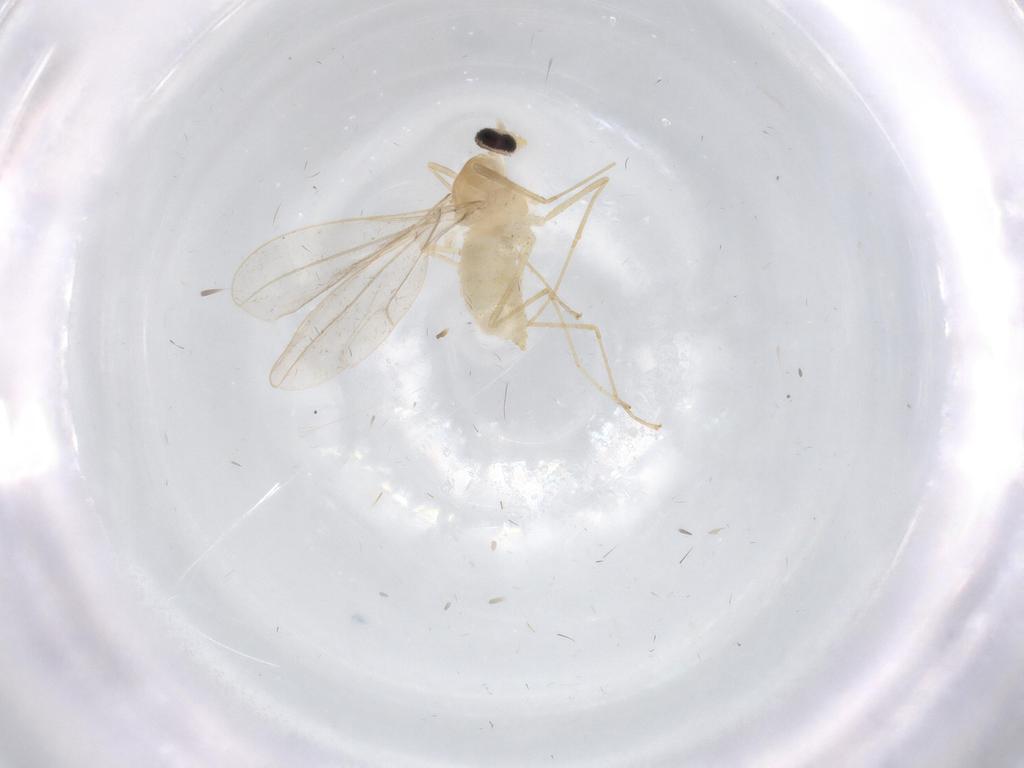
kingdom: Animalia
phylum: Arthropoda
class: Insecta
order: Diptera
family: Cecidomyiidae
